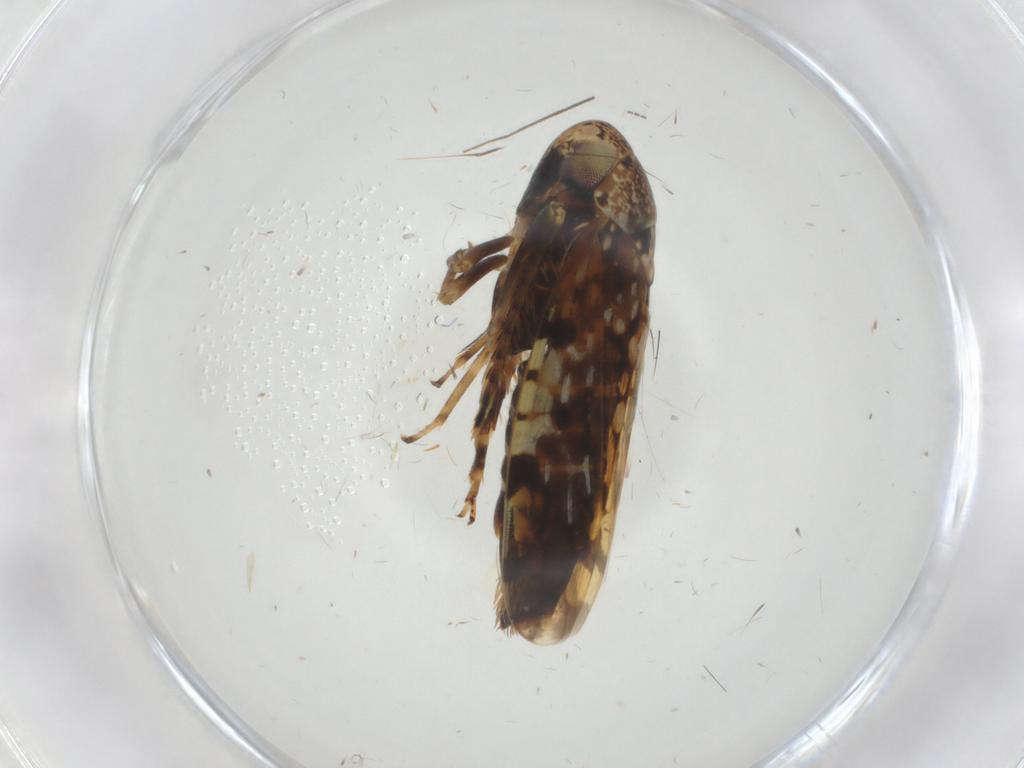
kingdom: Animalia
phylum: Arthropoda
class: Insecta
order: Hemiptera
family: Cicadellidae
